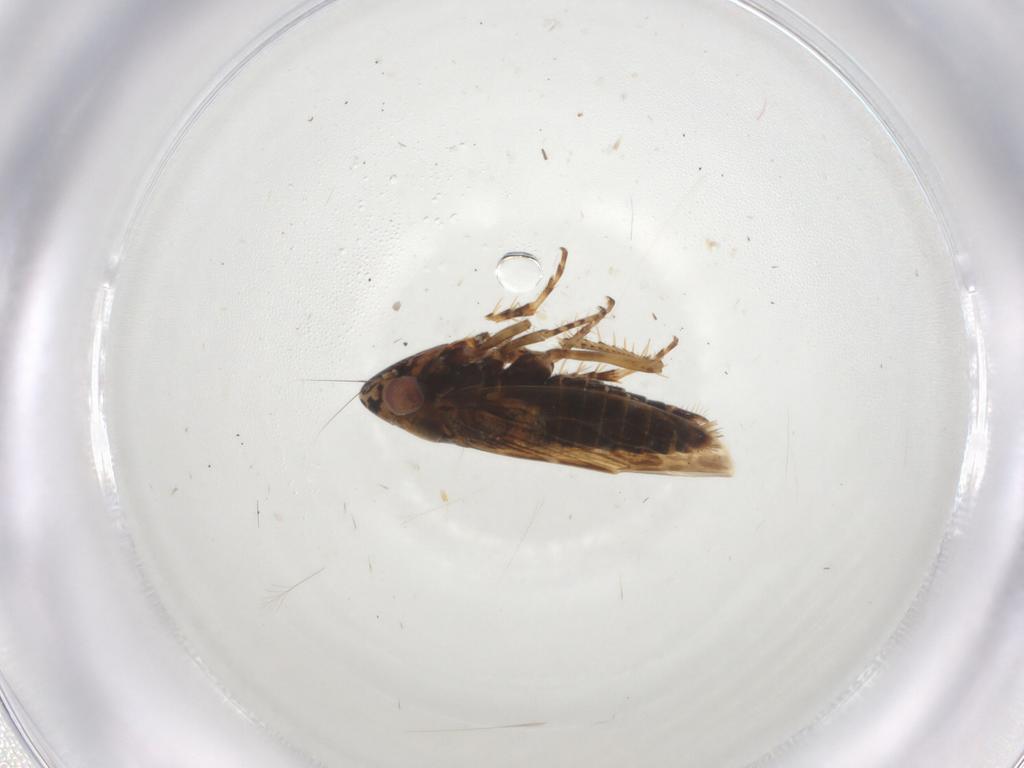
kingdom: Animalia
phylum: Arthropoda
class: Insecta
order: Hemiptera
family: Cicadellidae
